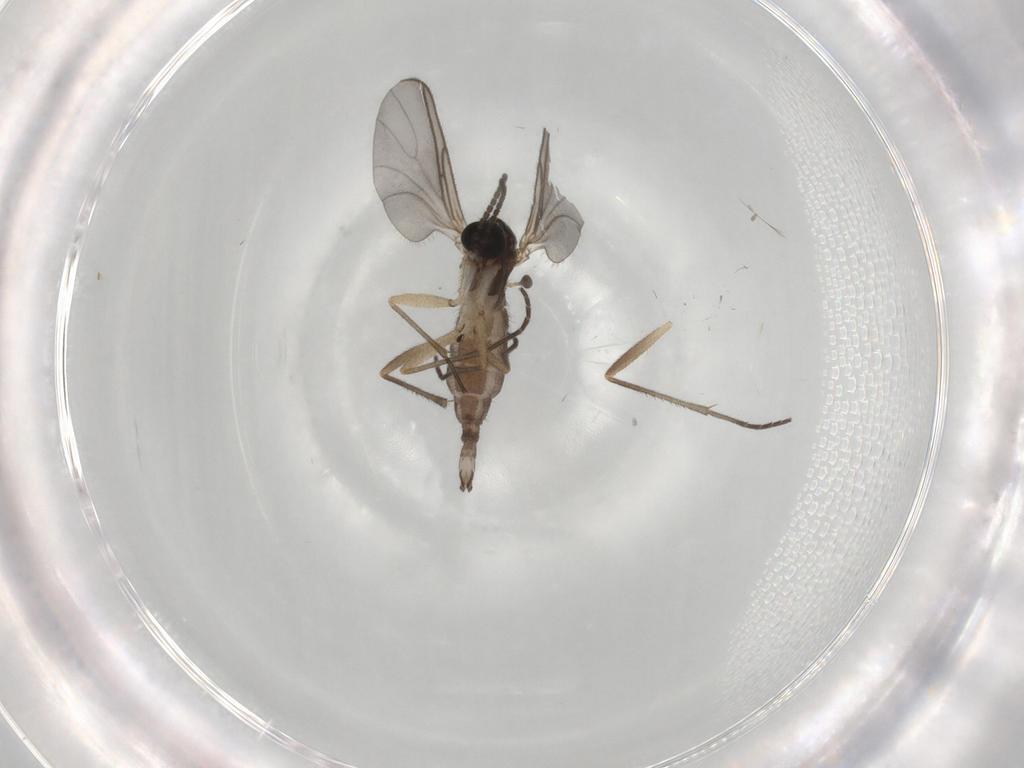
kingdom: Animalia
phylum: Arthropoda
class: Insecta
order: Diptera
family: Sciaridae
